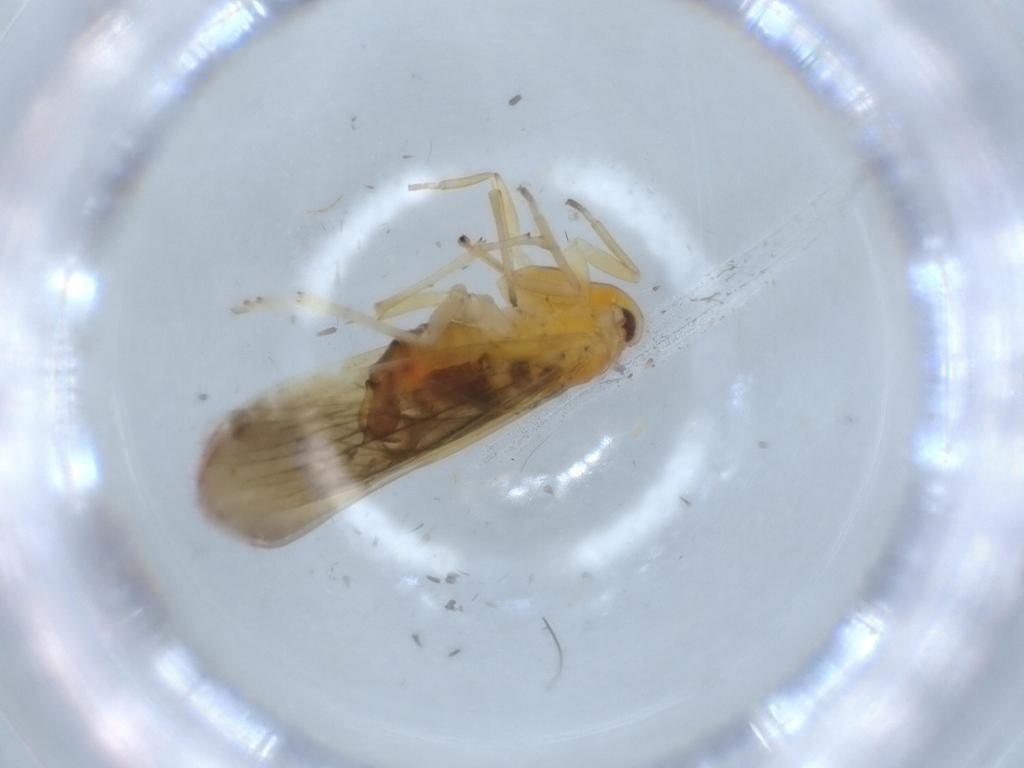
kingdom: Animalia
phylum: Arthropoda
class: Insecta
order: Hemiptera
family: Derbidae
